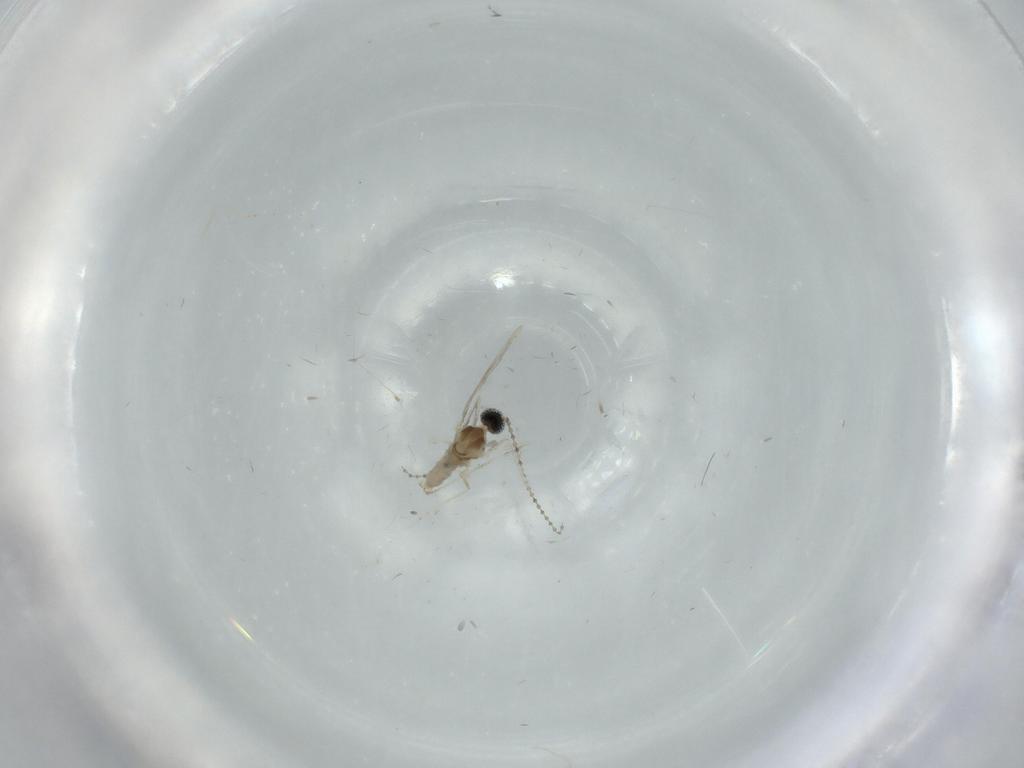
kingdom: Animalia
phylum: Arthropoda
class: Insecta
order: Diptera
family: Cecidomyiidae
